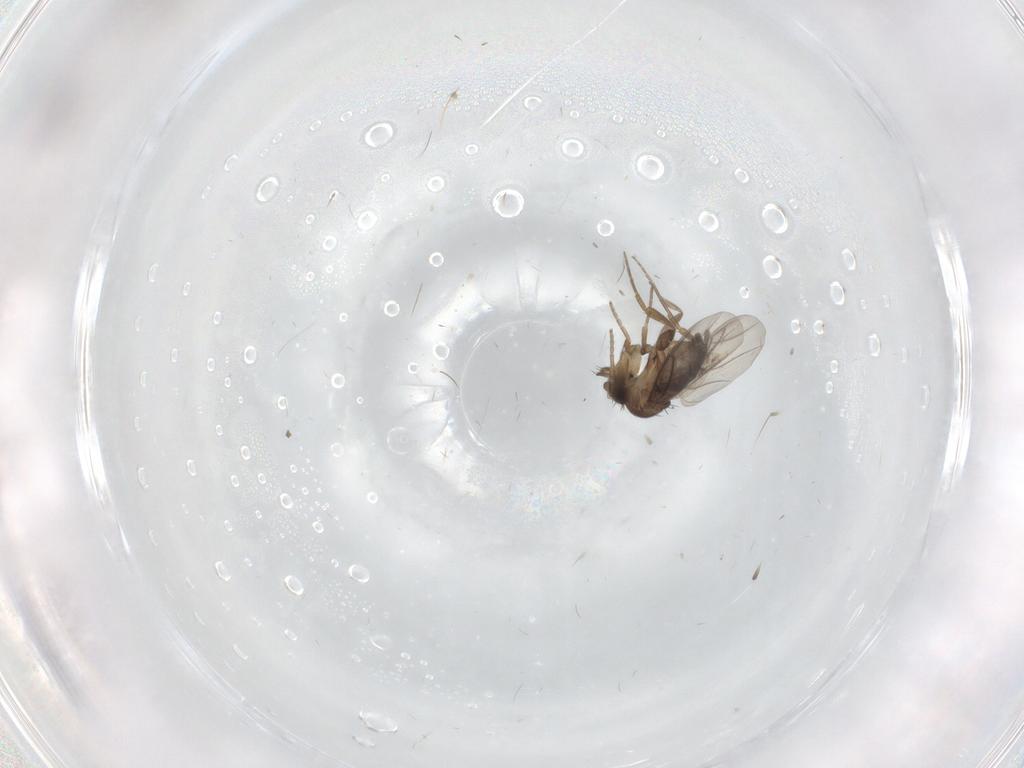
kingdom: Animalia
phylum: Arthropoda
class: Insecta
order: Diptera
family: Phoridae
